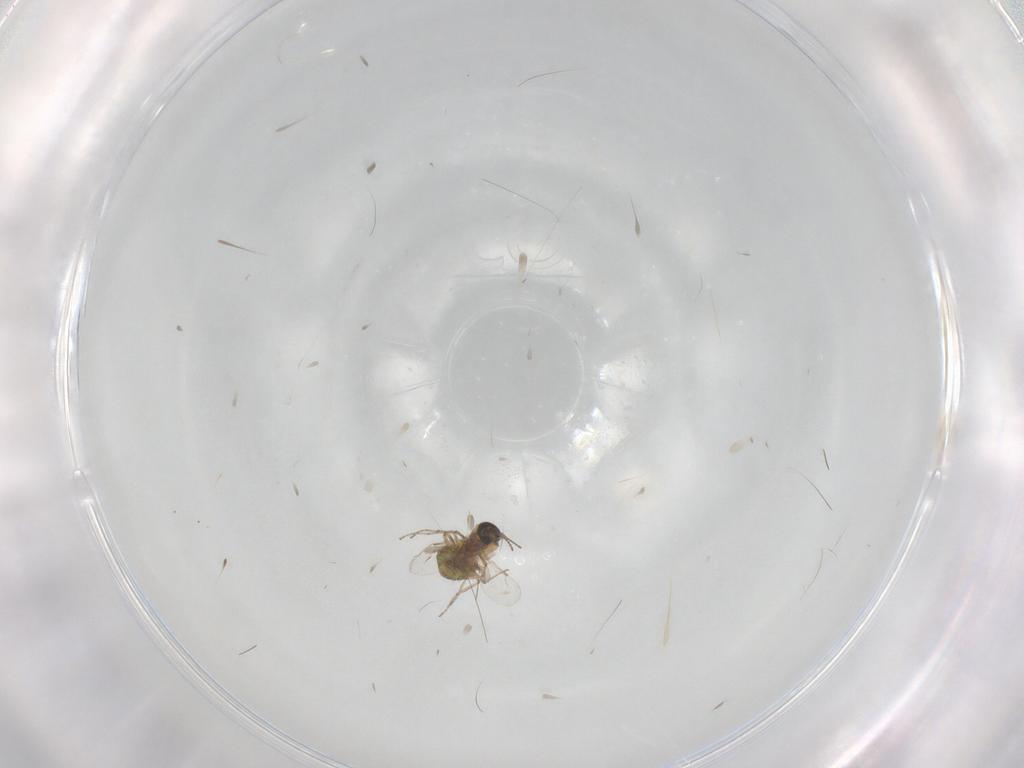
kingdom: Animalia
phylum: Arthropoda
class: Insecta
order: Diptera
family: Ceratopogonidae
